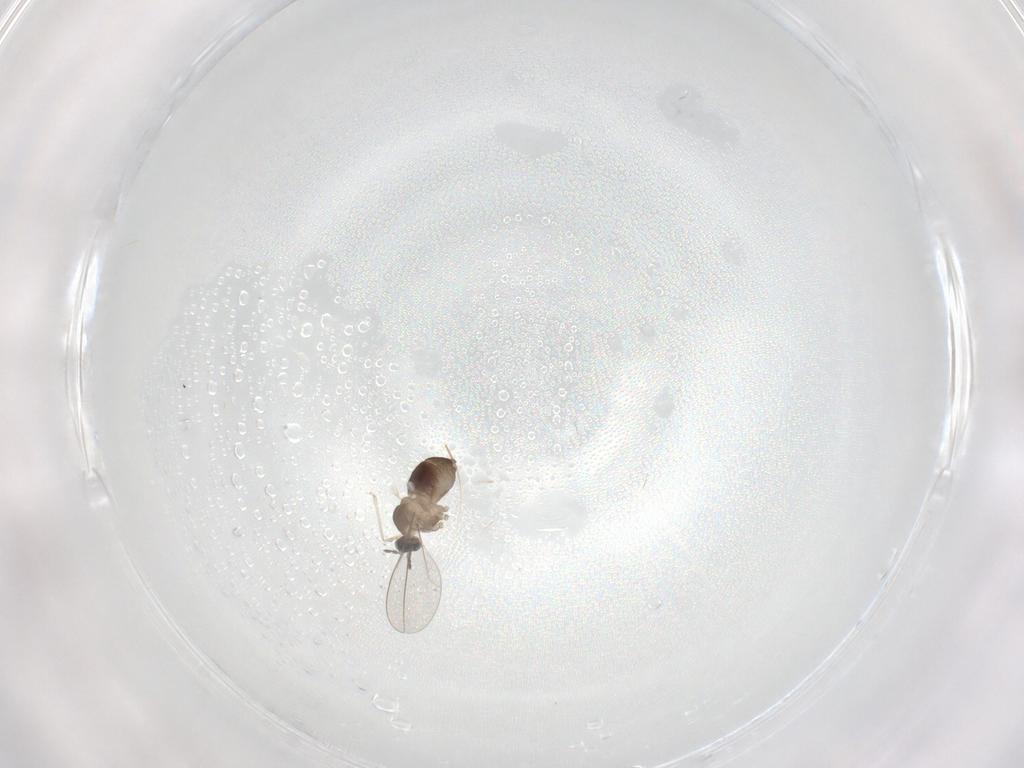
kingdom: Animalia
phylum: Arthropoda
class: Insecta
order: Diptera
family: Cecidomyiidae
